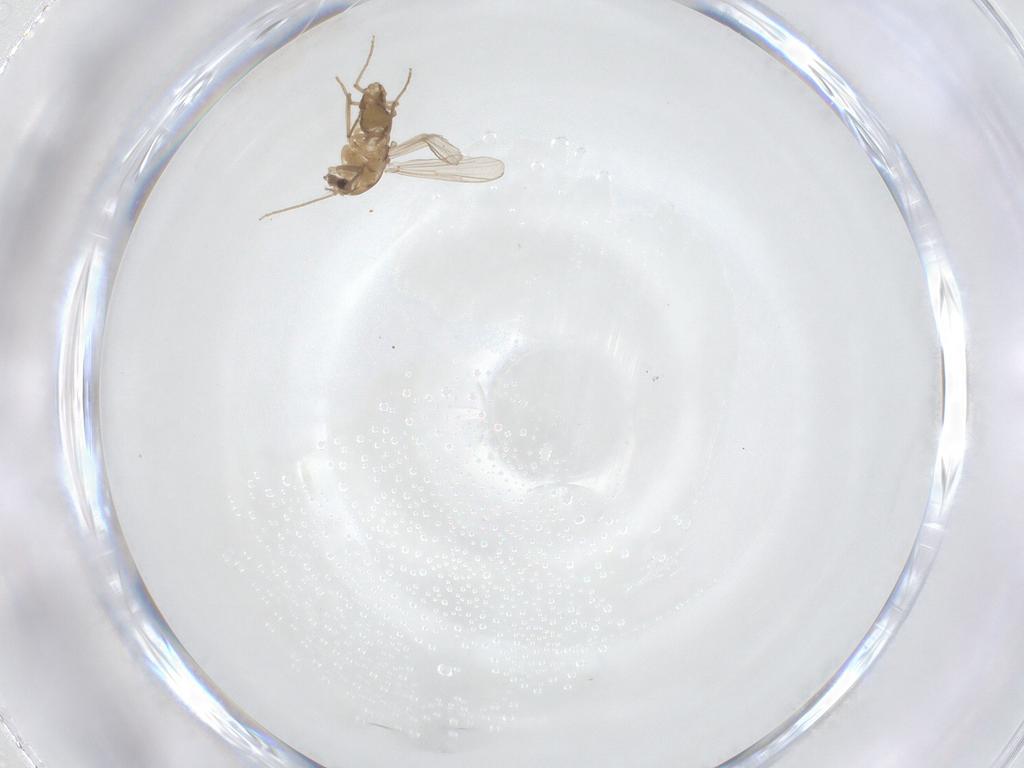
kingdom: Animalia
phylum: Arthropoda
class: Insecta
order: Diptera
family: Chironomidae
